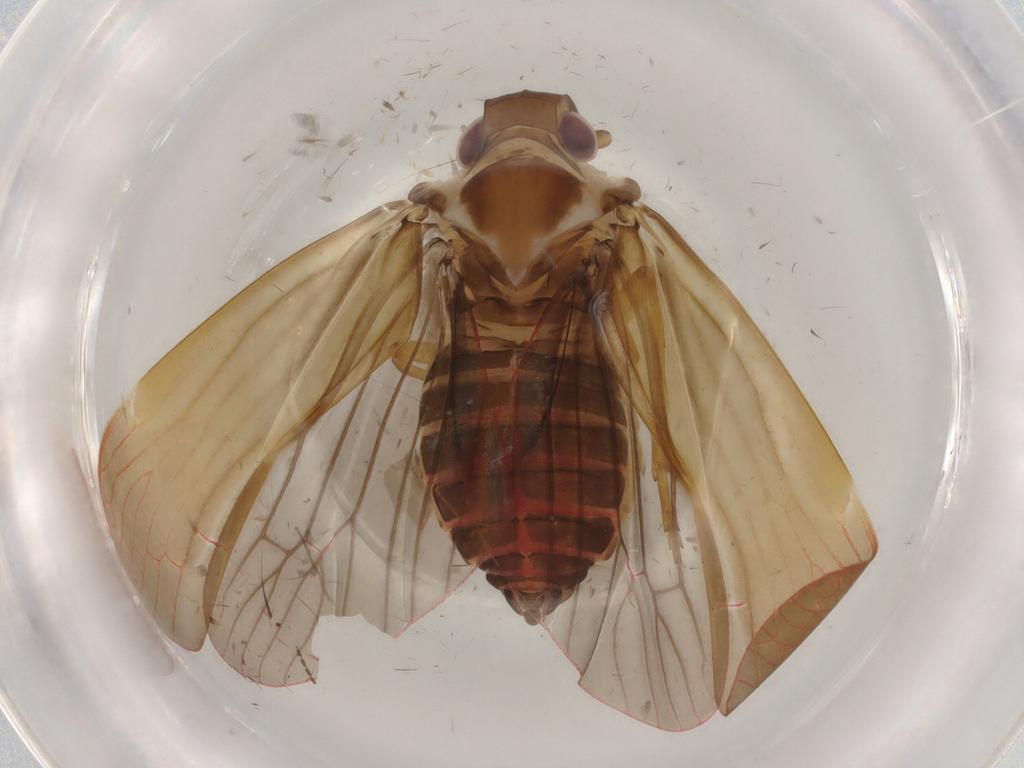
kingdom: Animalia
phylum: Arthropoda
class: Insecta
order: Hemiptera
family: Achilidae
